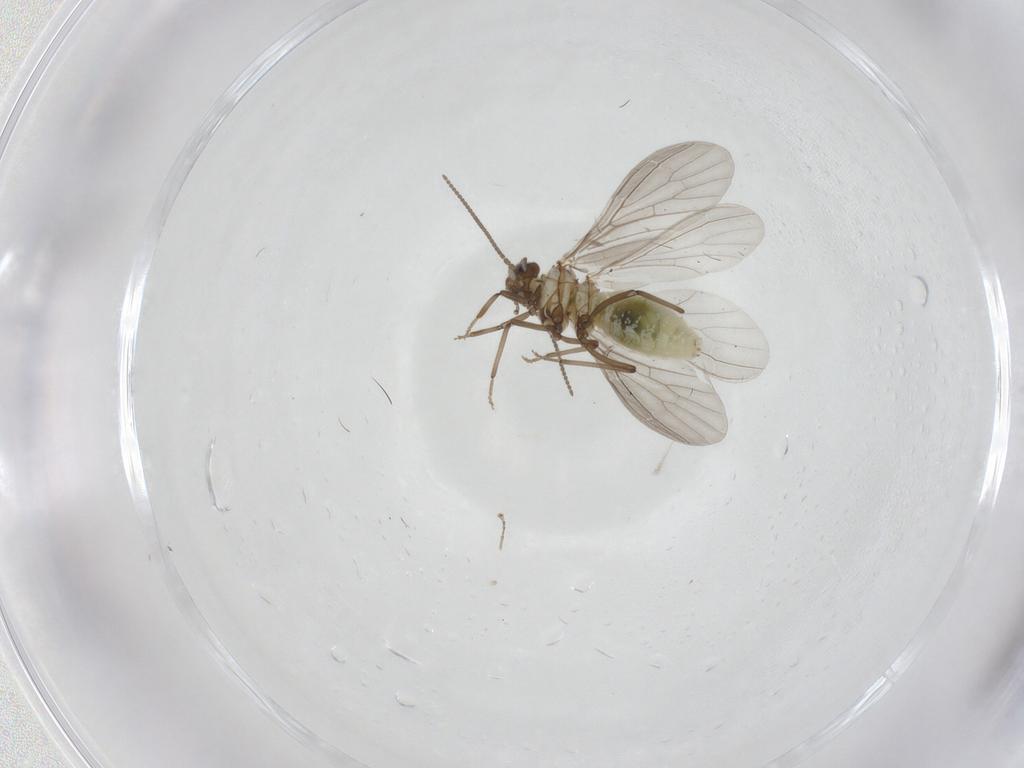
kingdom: Animalia
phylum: Arthropoda
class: Insecta
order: Neuroptera
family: Coniopterygidae
